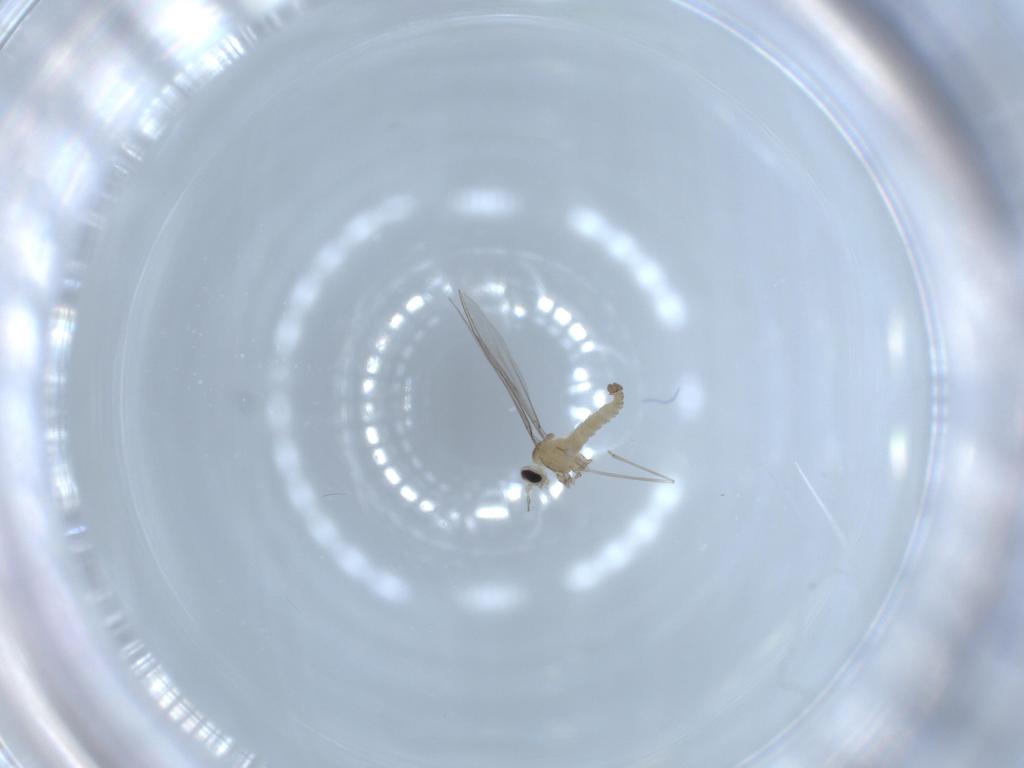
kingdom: Animalia
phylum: Arthropoda
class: Insecta
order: Diptera
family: Cecidomyiidae
